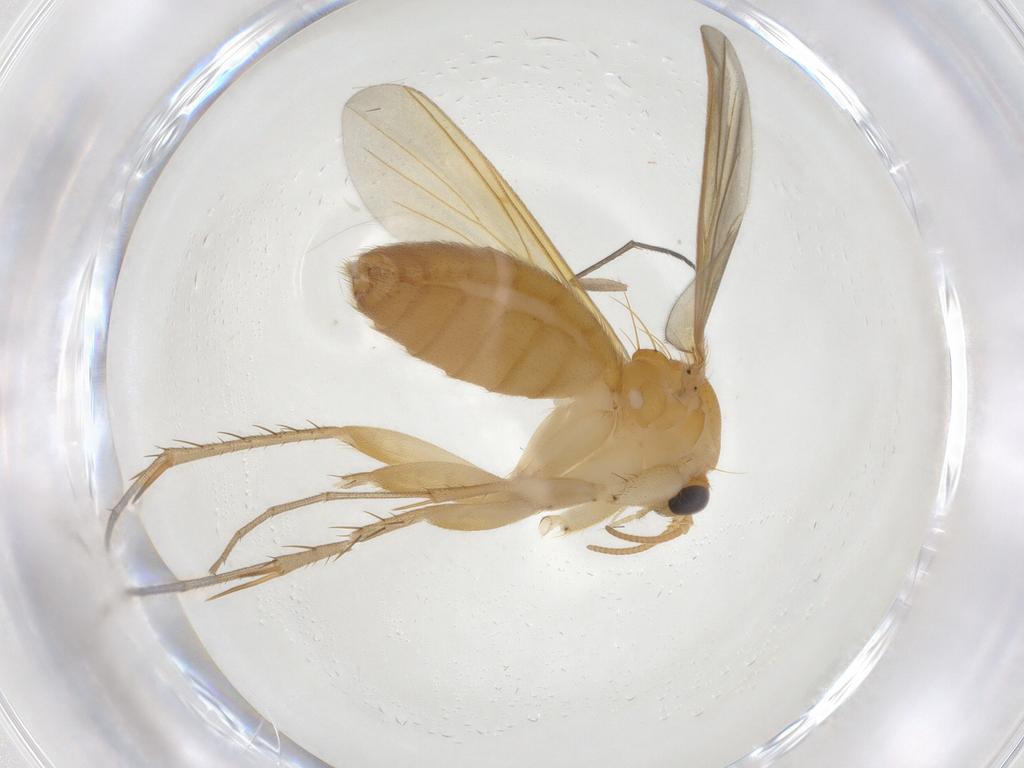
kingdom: Animalia
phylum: Arthropoda
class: Insecta
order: Diptera
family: Mycetophilidae
